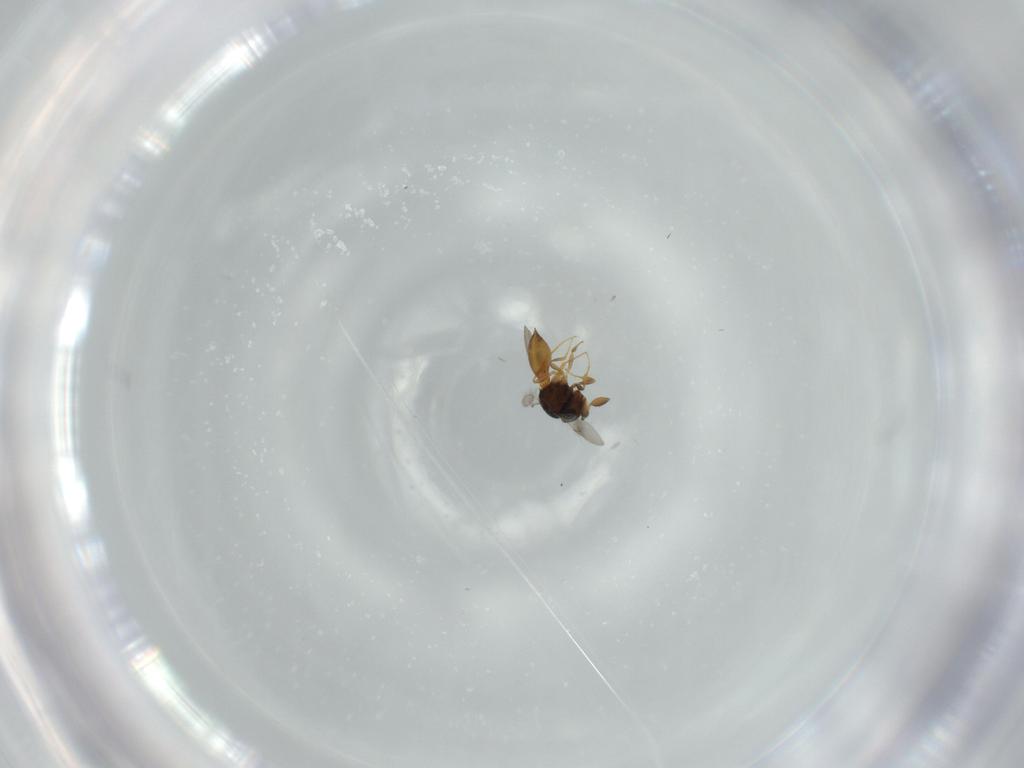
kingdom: Animalia
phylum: Arthropoda
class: Insecta
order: Hymenoptera
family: Scelionidae
